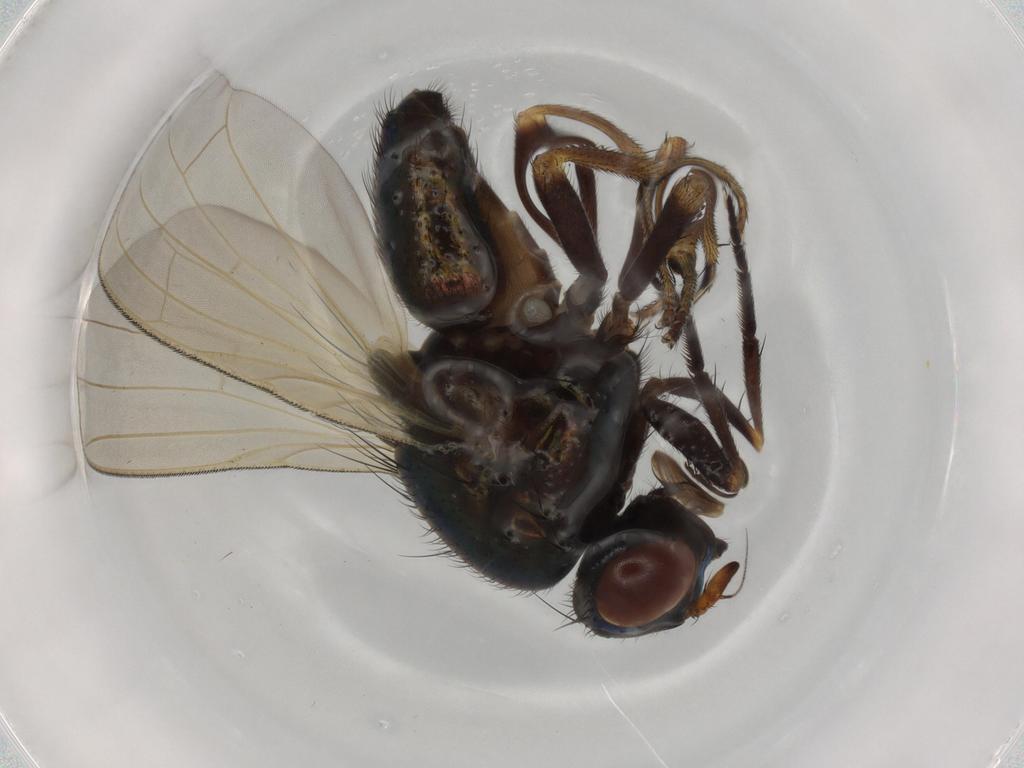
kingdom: Animalia
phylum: Arthropoda
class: Insecta
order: Diptera
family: Lauxaniidae
